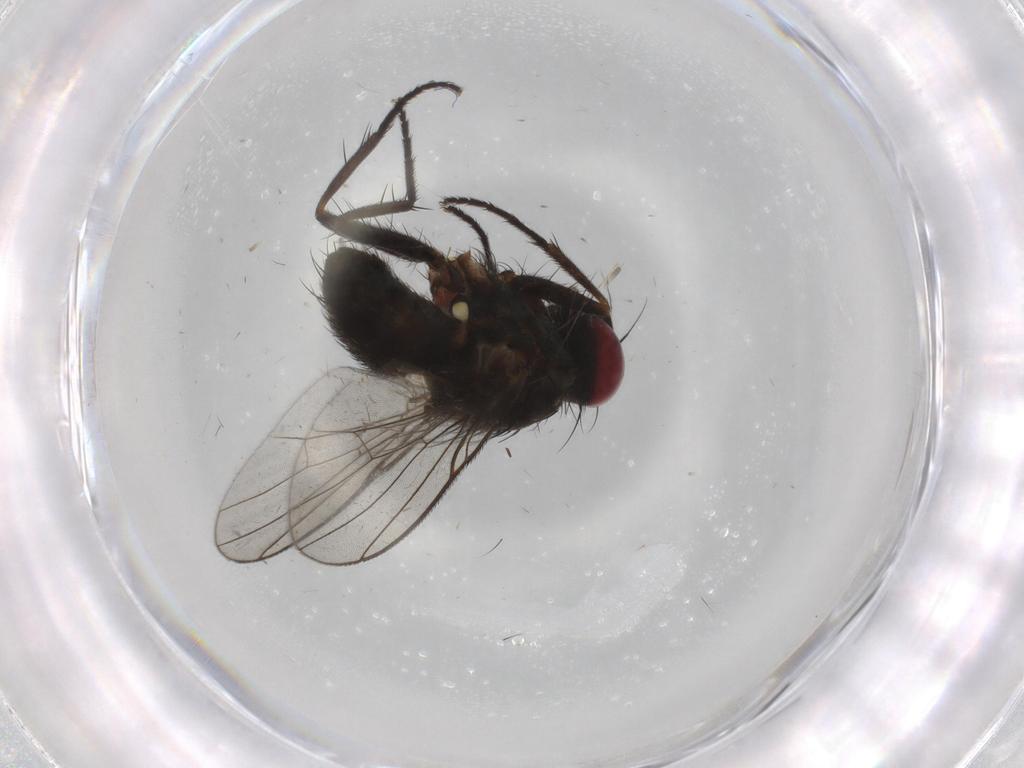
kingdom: Animalia
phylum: Arthropoda
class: Insecta
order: Diptera
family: Muscidae
